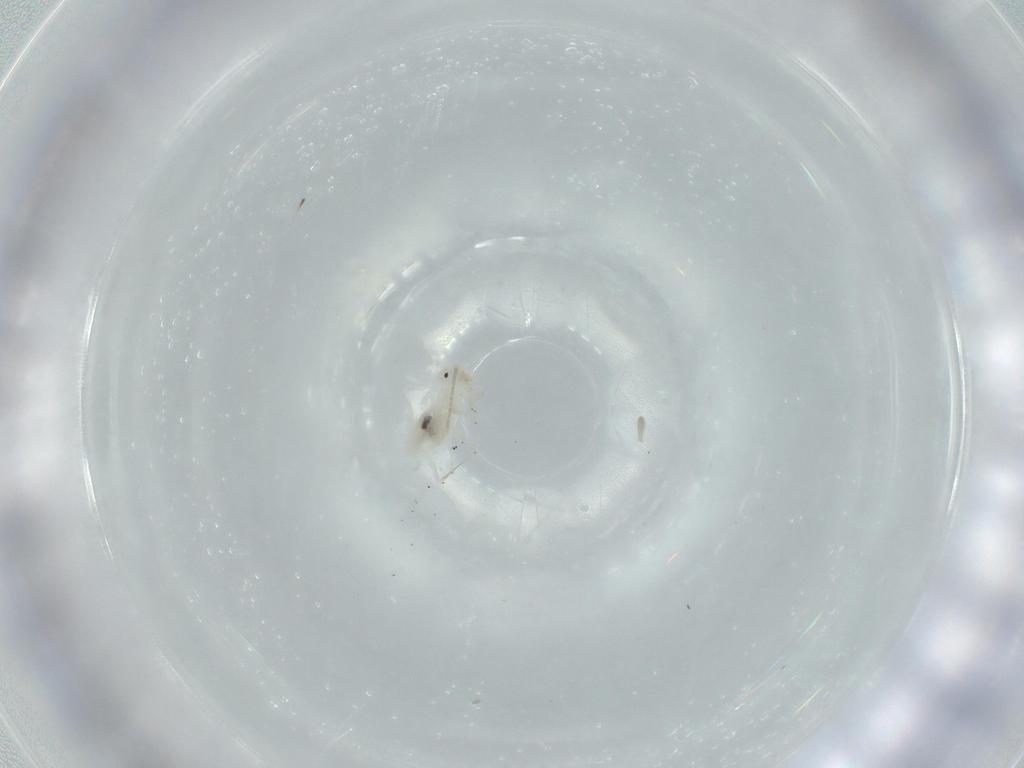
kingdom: Animalia
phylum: Arthropoda
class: Insecta
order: Psocodea
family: Caeciliusidae
